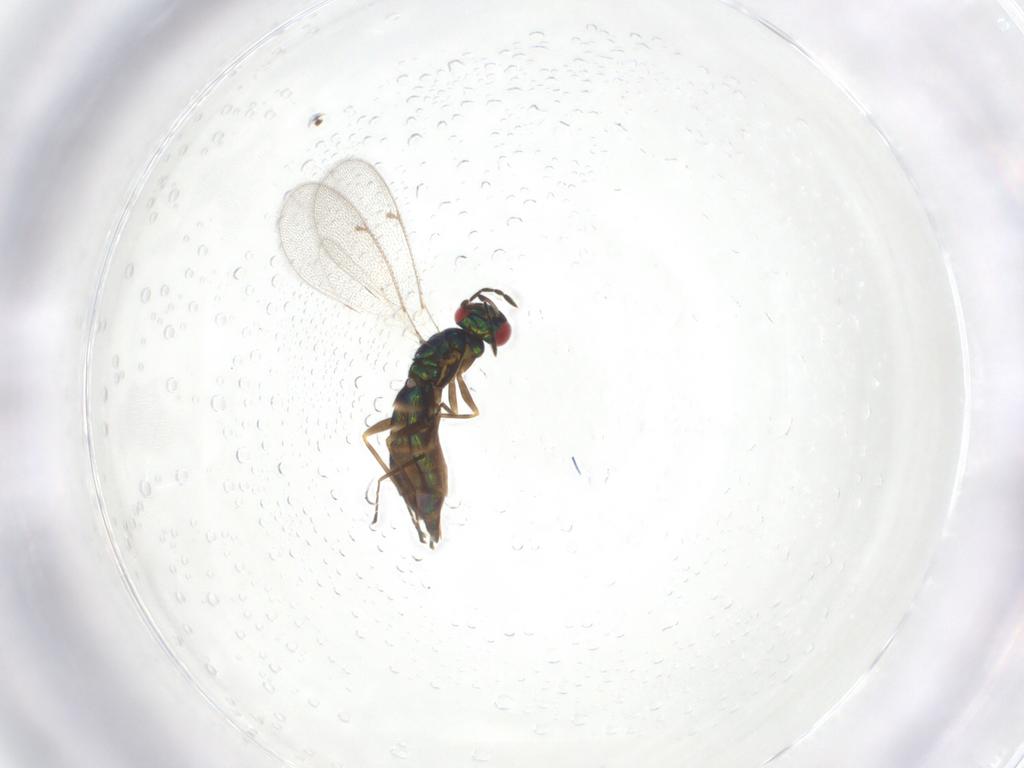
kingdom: Animalia
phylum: Arthropoda
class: Insecta
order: Hymenoptera
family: Eulophidae
